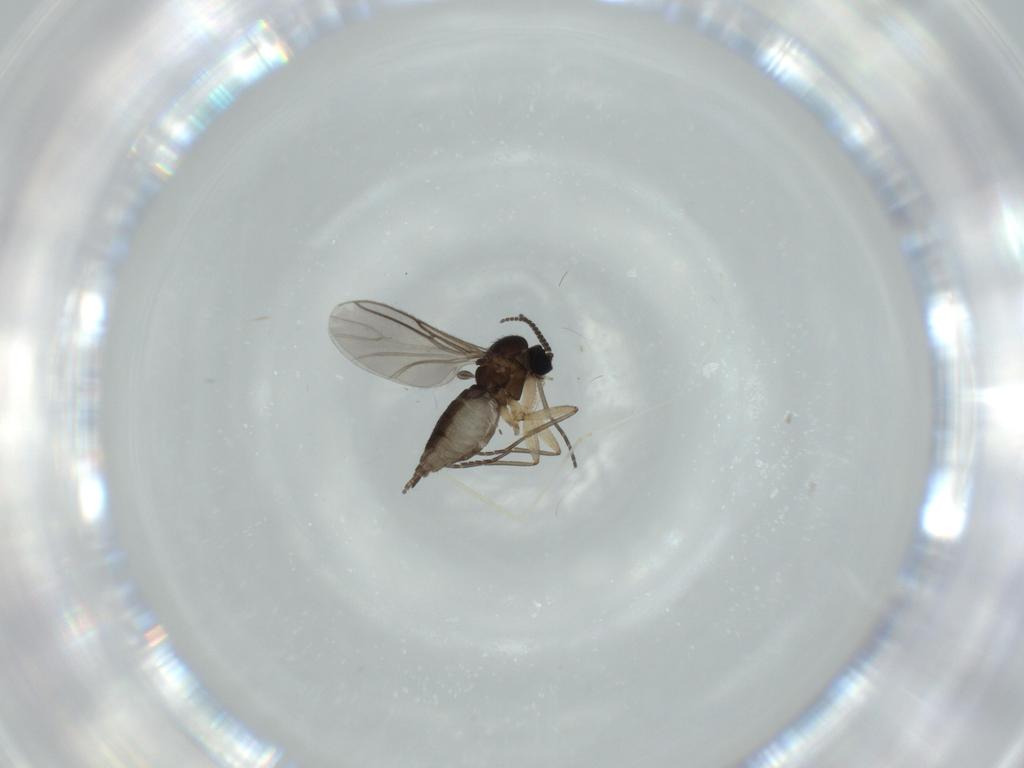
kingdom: Animalia
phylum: Arthropoda
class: Insecta
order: Diptera
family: Sciaridae
